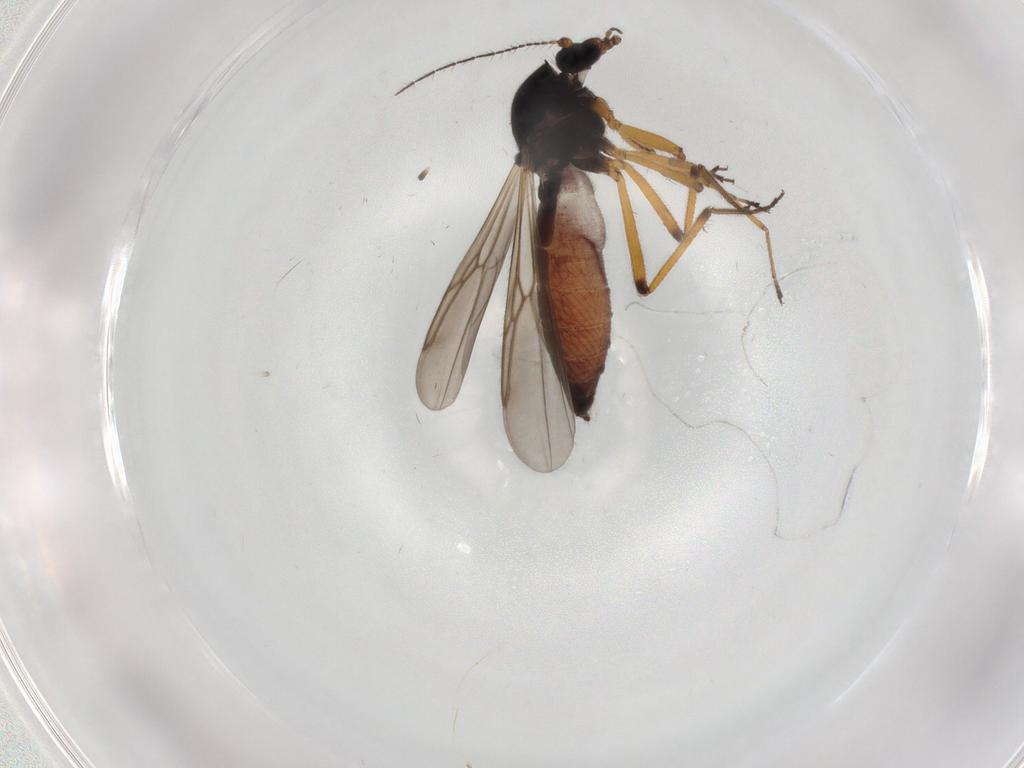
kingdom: Animalia
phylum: Arthropoda
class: Insecta
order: Diptera
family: Ceratopogonidae
